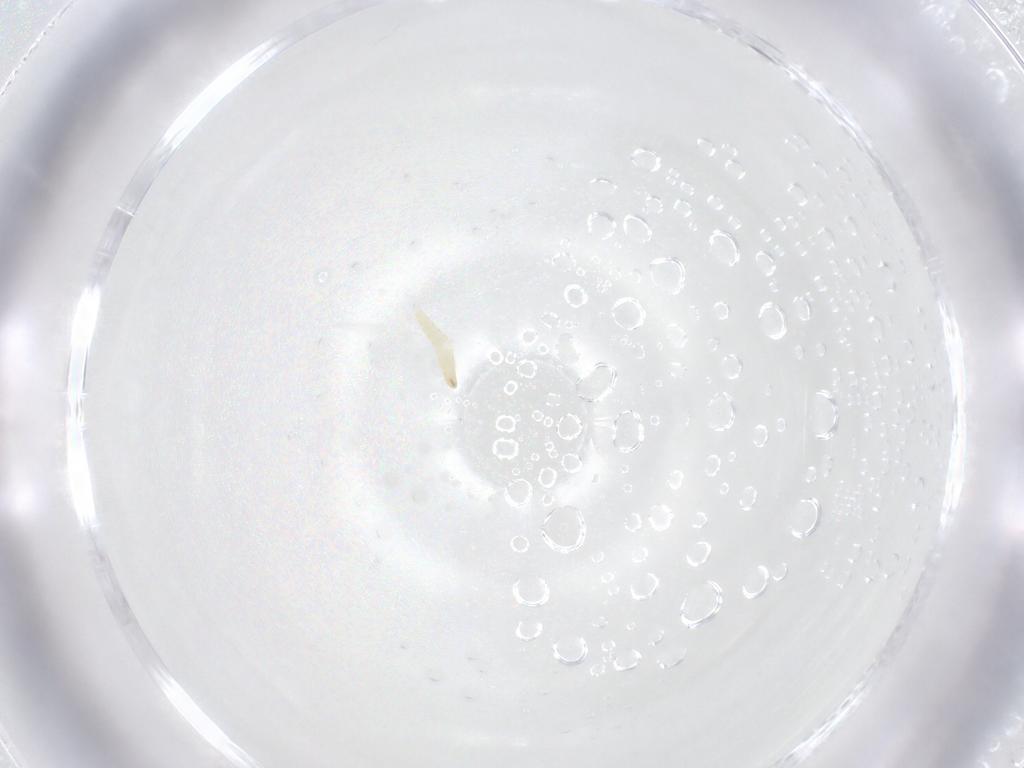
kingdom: Animalia
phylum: Arthropoda
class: Insecta
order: Diptera
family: Tachinidae
